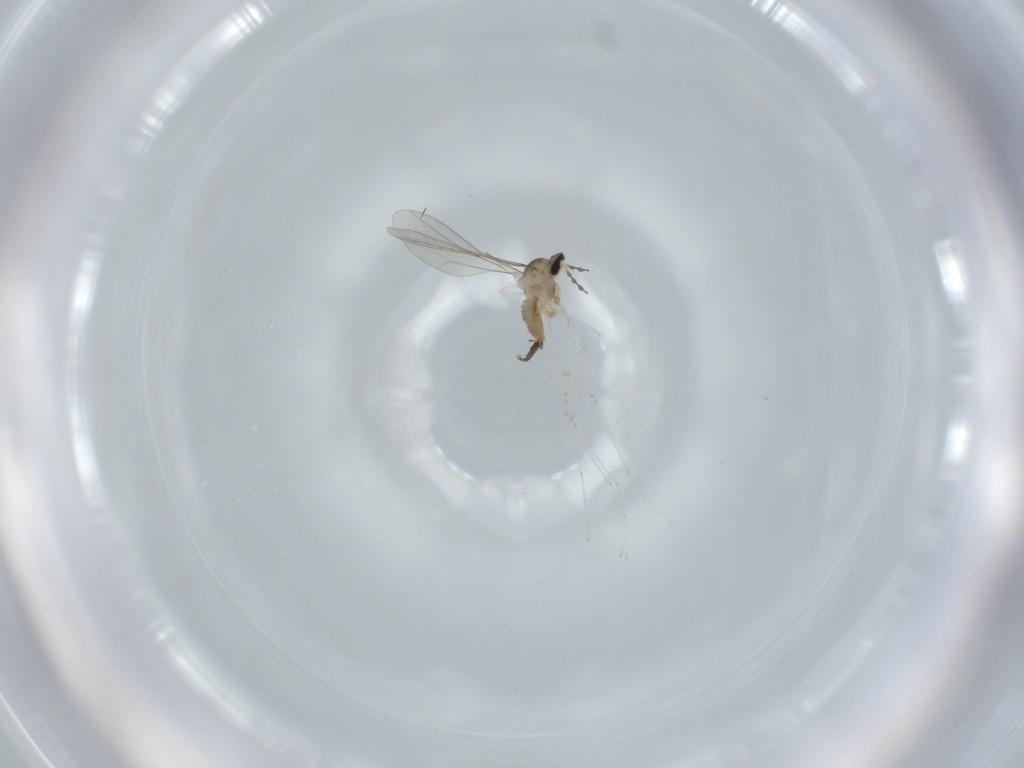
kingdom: Animalia
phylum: Arthropoda
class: Insecta
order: Diptera
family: Cecidomyiidae
